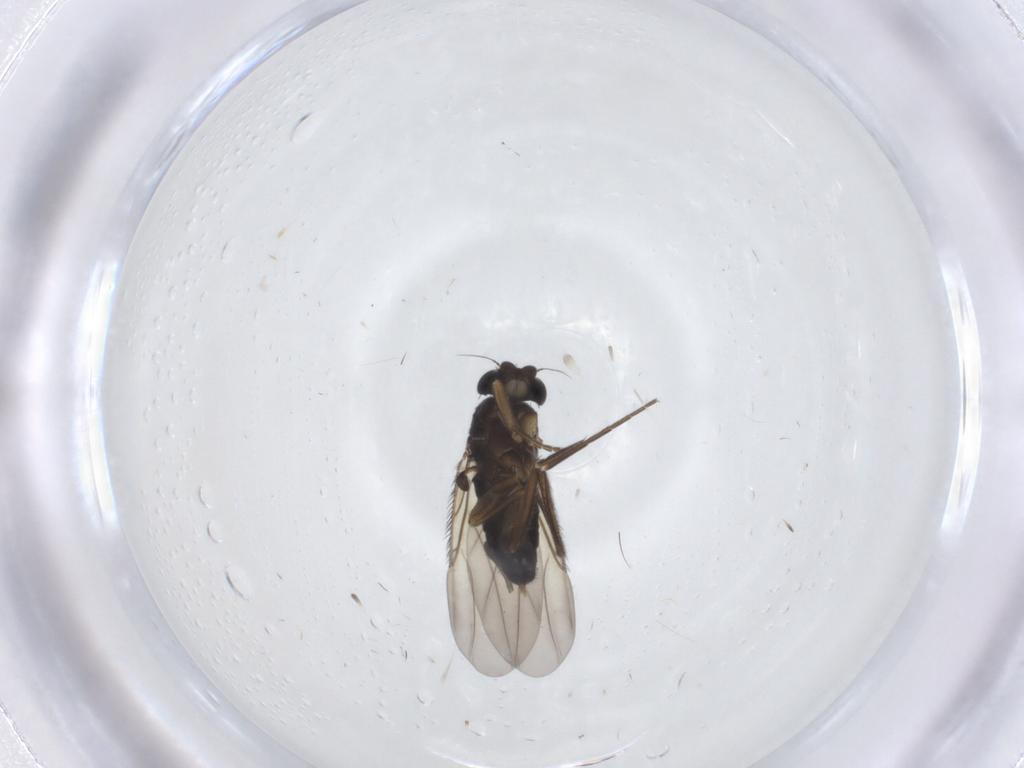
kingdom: Animalia
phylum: Arthropoda
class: Insecta
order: Diptera
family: Phoridae
